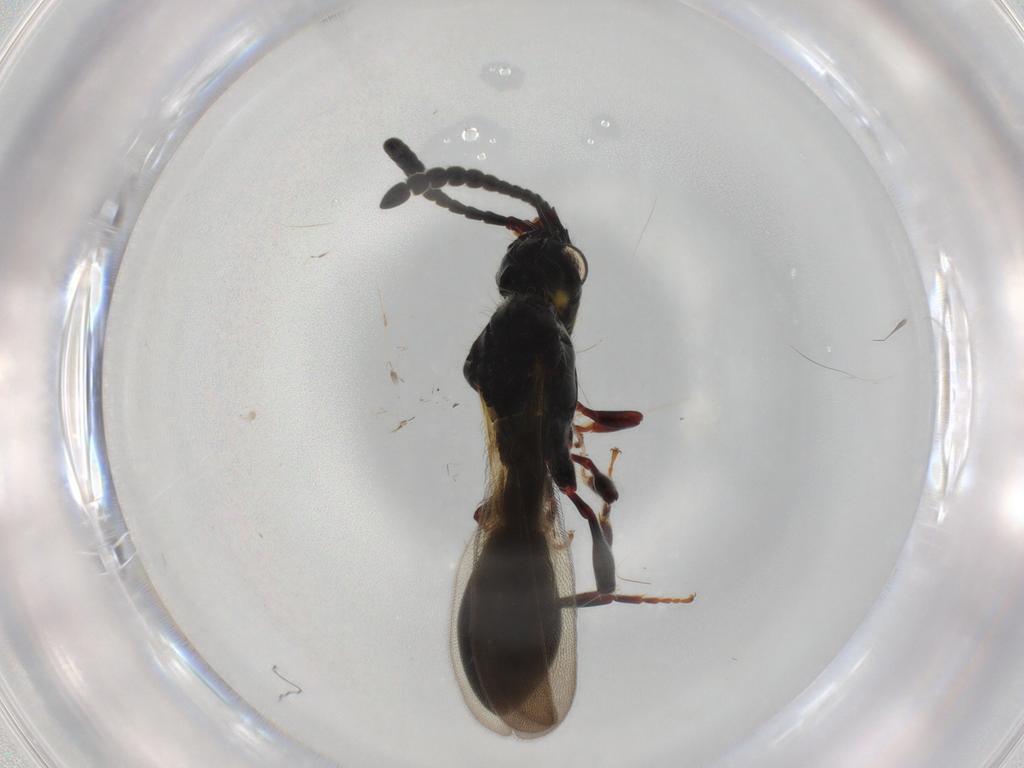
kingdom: Animalia
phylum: Arthropoda
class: Insecta
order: Hymenoptera
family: Diapriidae
